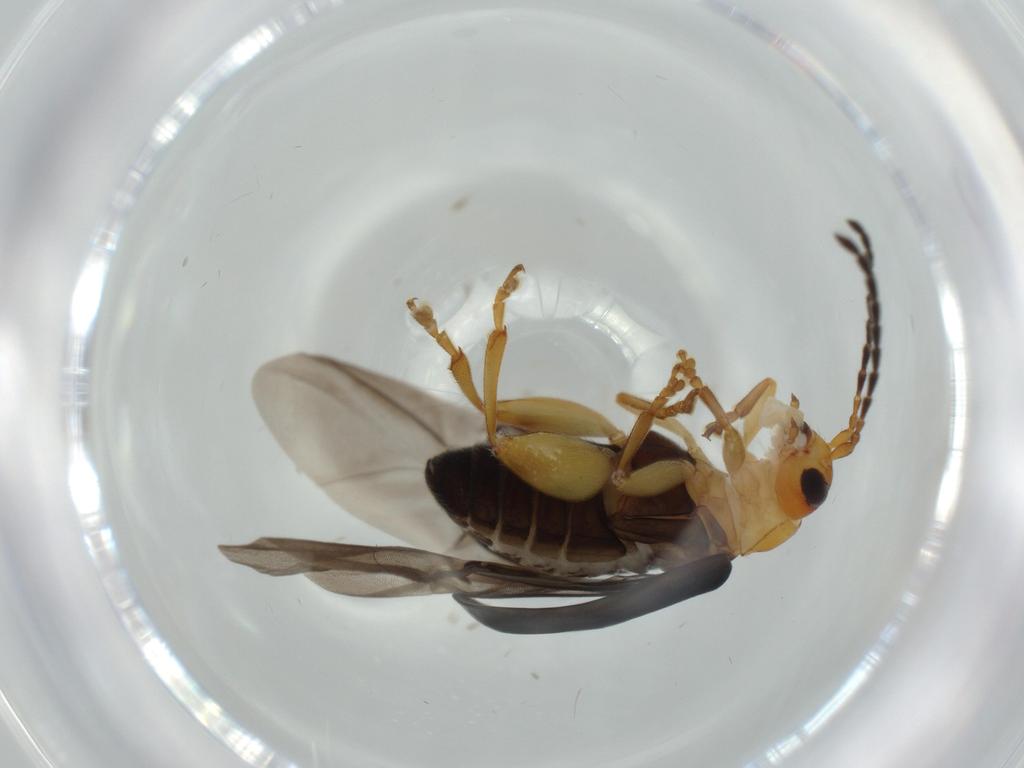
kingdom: Animalia
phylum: Arthropoda
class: Insecta
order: Coleoptera
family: Chrysomelidae
